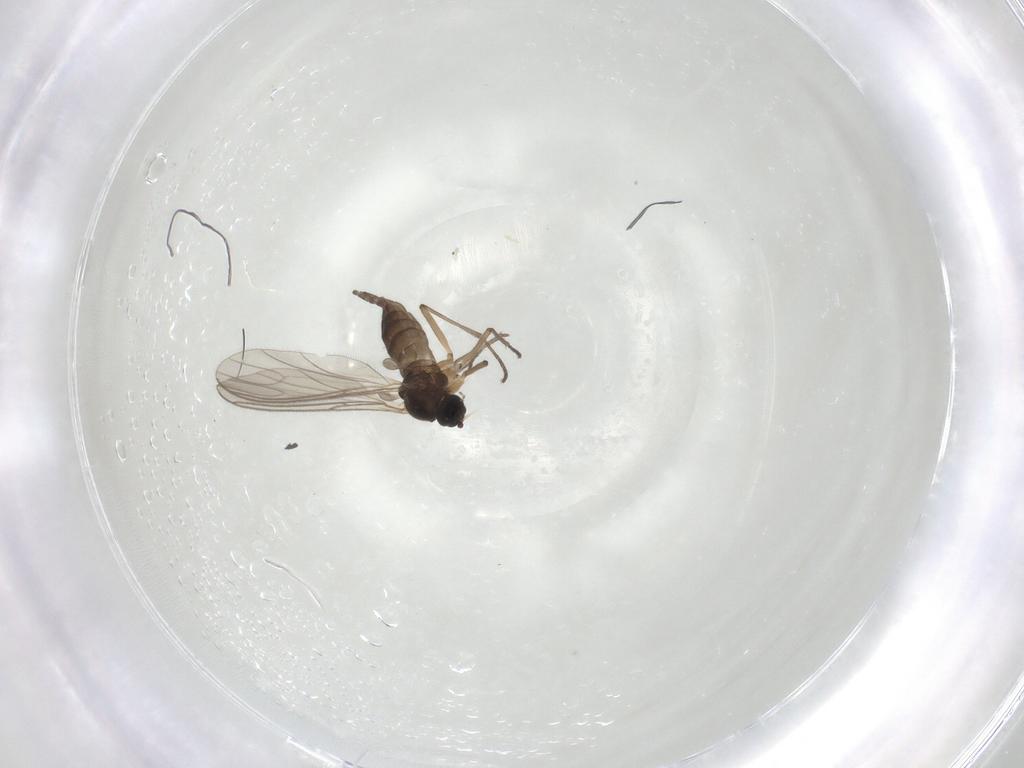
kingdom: Animalia
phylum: Arthropoda
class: Insecta
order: Diptera
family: Sciaridae
